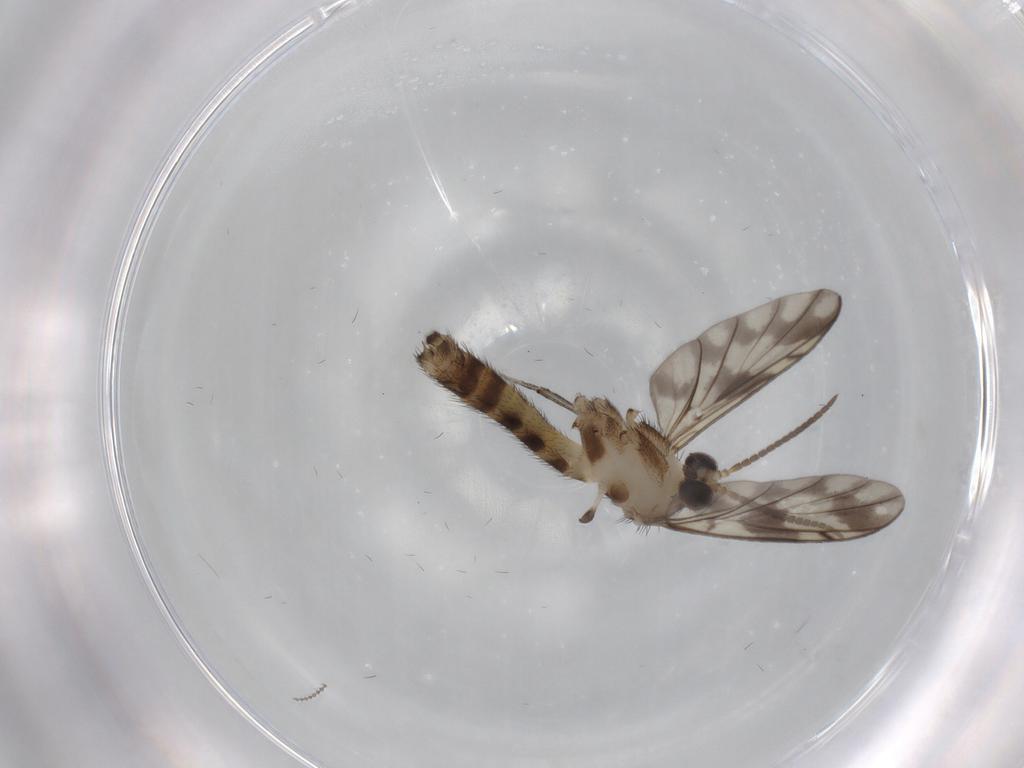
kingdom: Animalia
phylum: Arthropoda
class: Insecta
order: Diptera
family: Keroplatidae
